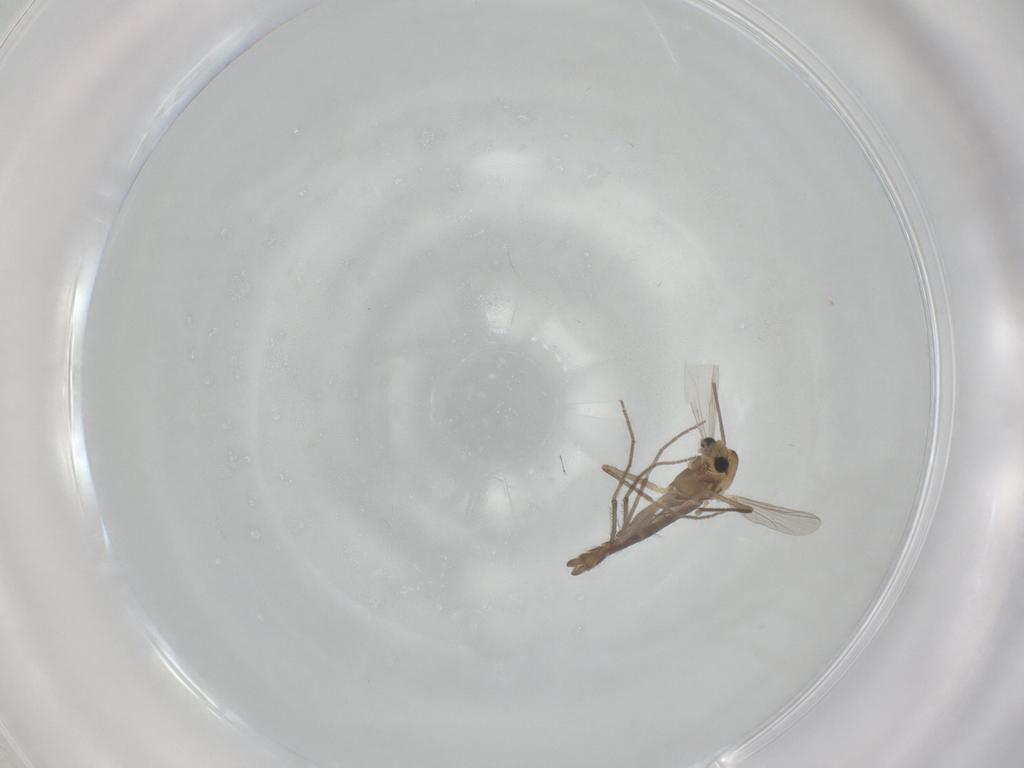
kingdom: Animalia
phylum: Arthropoda
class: Insecta
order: Diptera
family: Chironomidae
